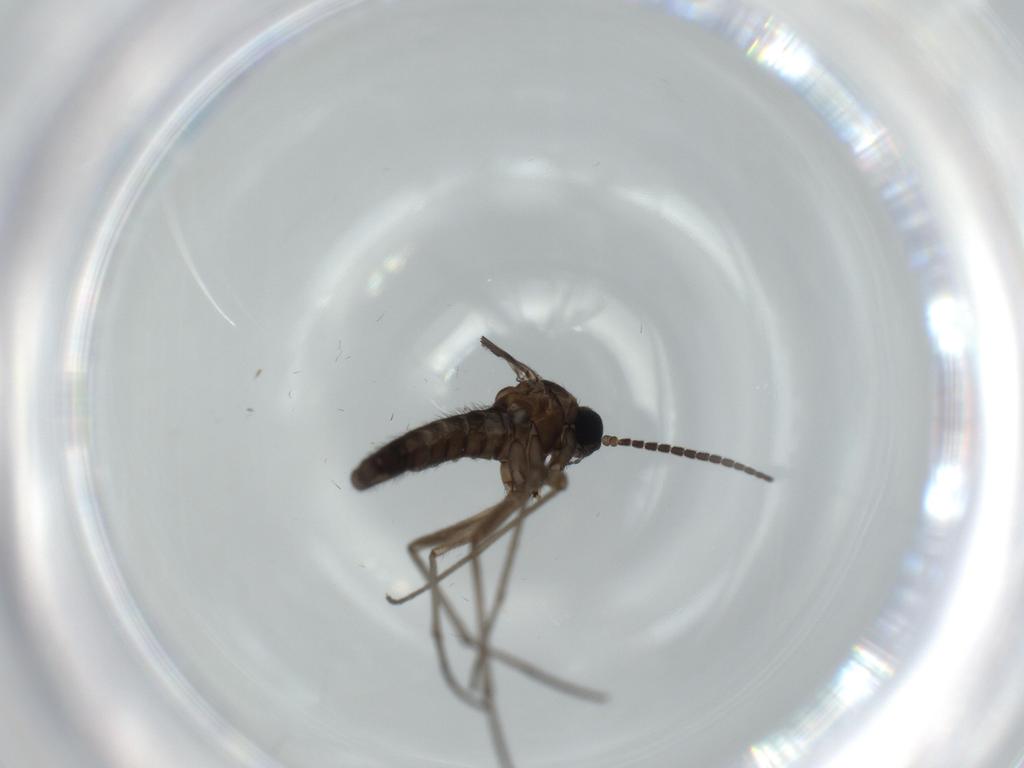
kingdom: Animalia
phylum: Arthropoda
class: Insecta
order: Diptera
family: Sciaridae
